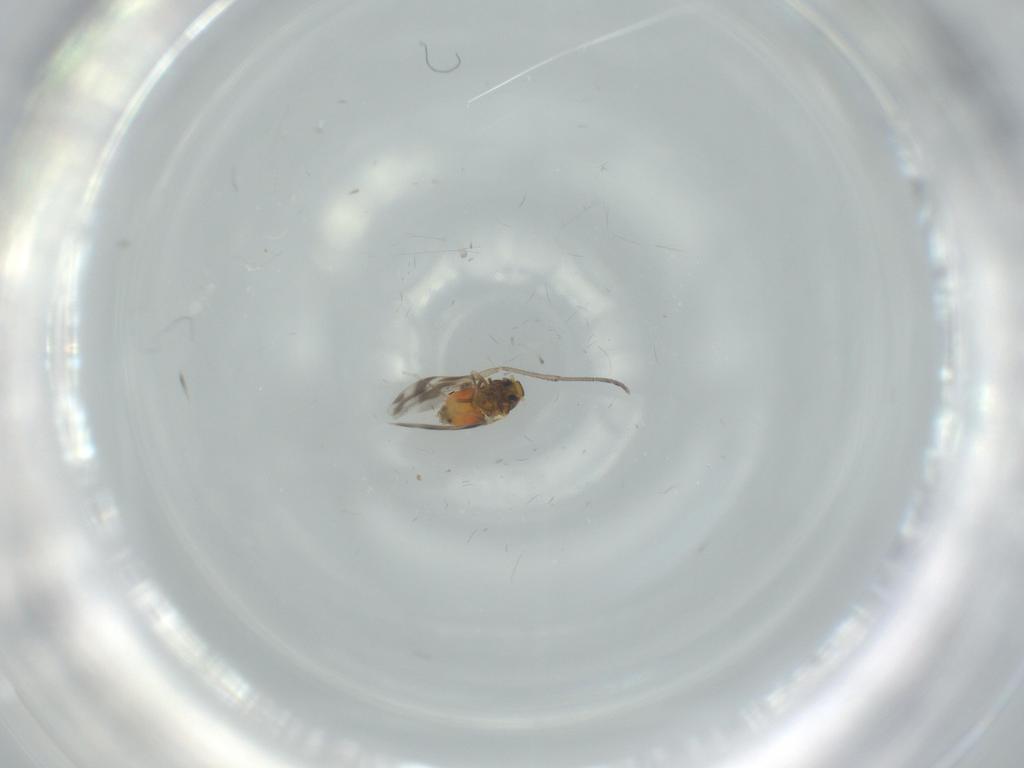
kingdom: Animalia
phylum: Arthropoda
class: Insecta
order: Hemiptera
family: Aleyrodidae
